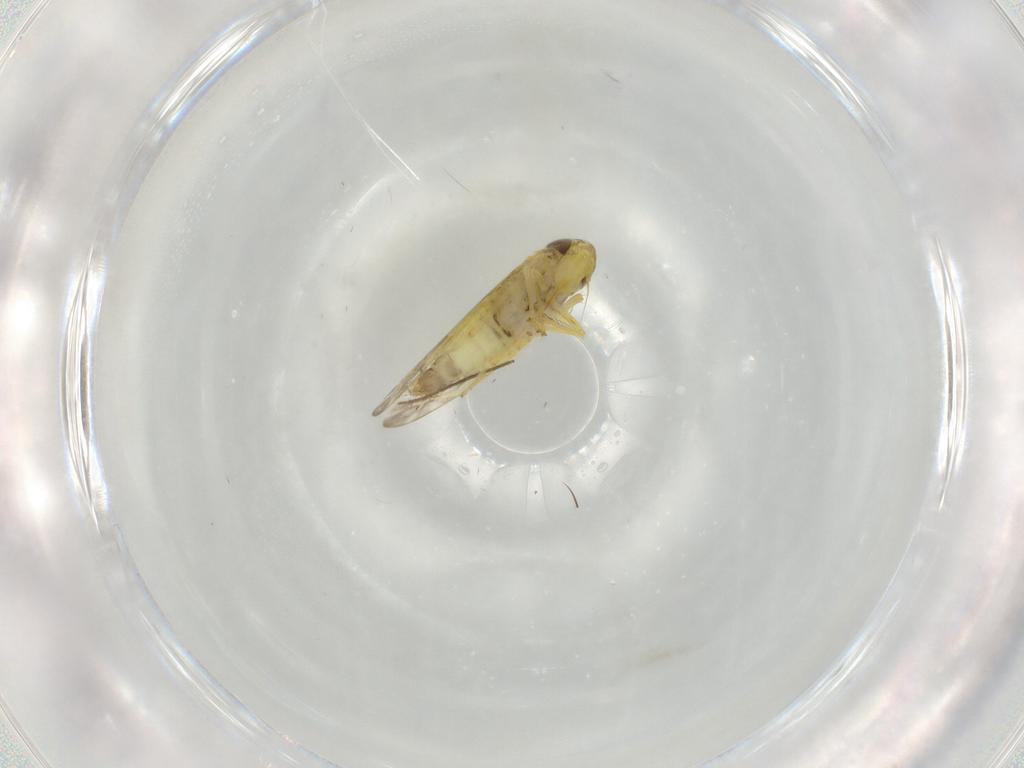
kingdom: Animalia
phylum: Arthropoda
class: Insecta
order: Hemiptera
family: Cicadellidae
